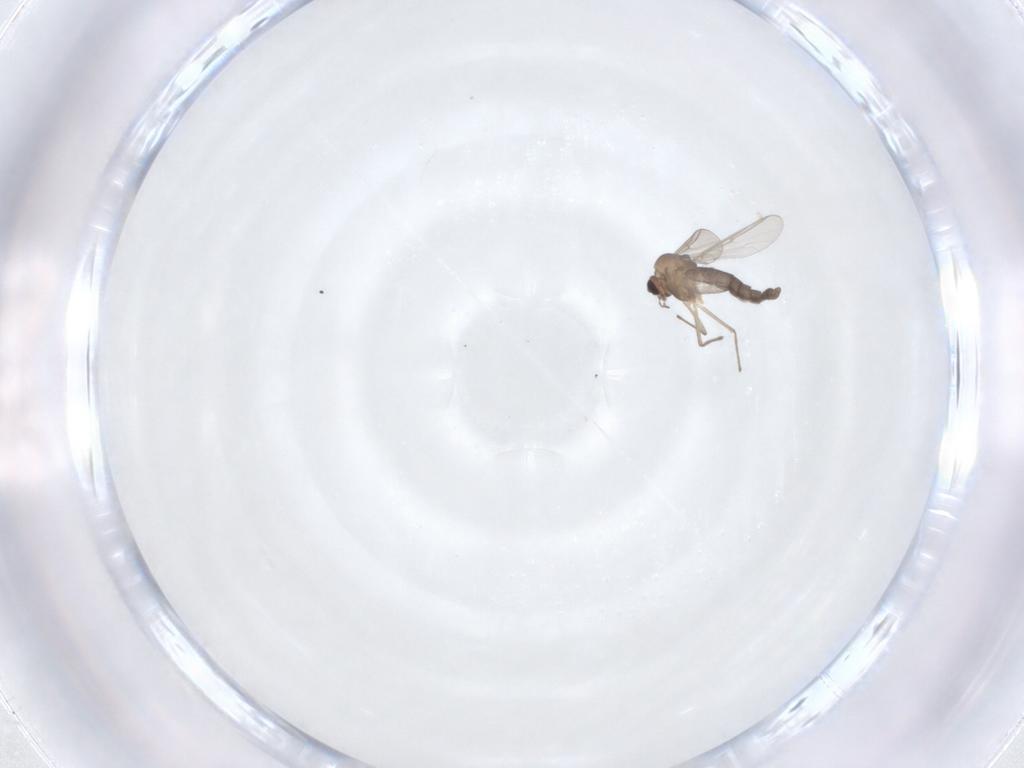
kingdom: Animalia
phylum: Arthropoda
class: Insecta
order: Diptera
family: Chironomidae
